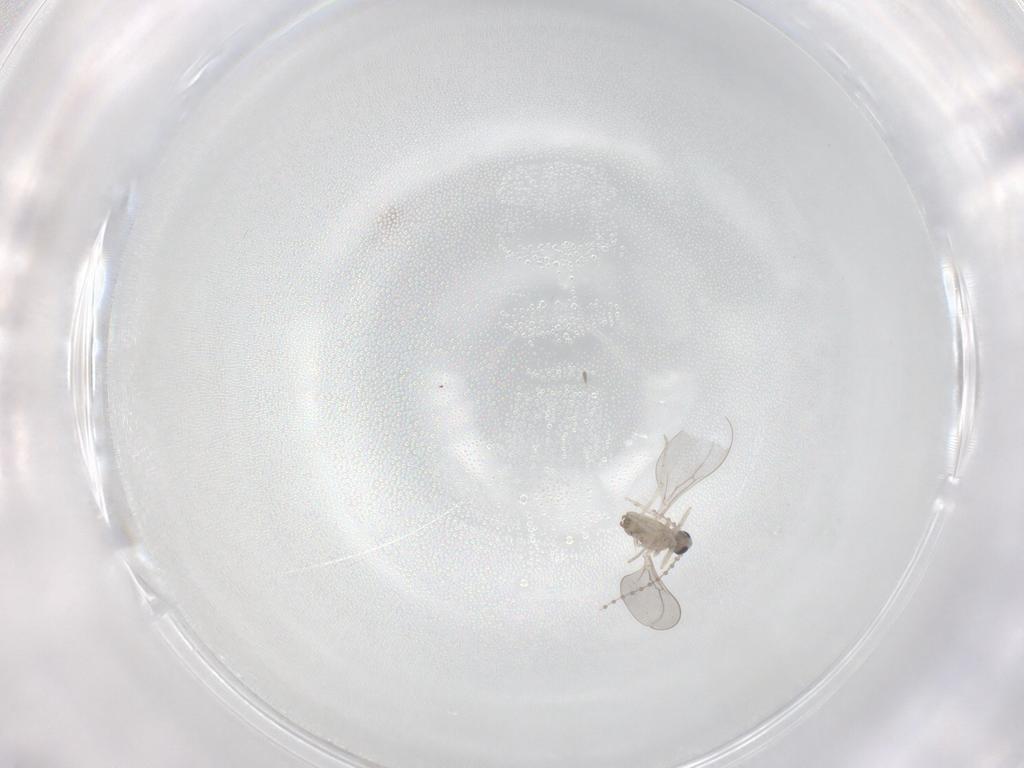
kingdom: Animalia
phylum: Arthropoda
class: Insecta
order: Diptera
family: Cecidomyiidae
